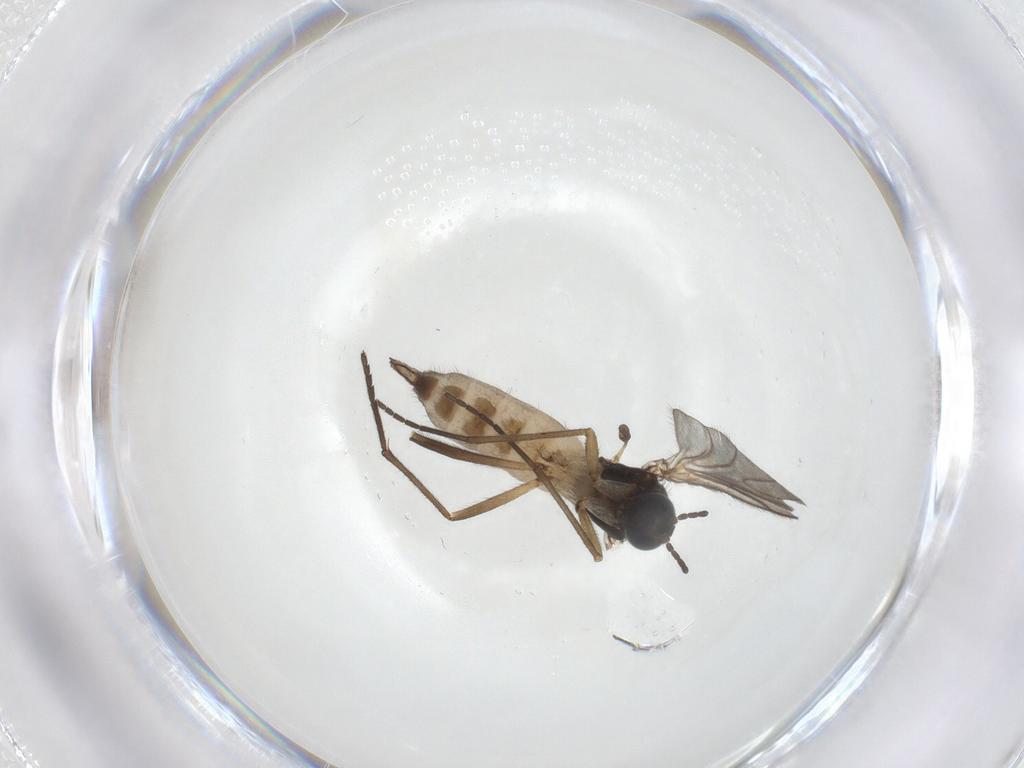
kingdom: Animalia
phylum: Arthropoda
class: Insecta
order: Diptera
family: Sciaridae
